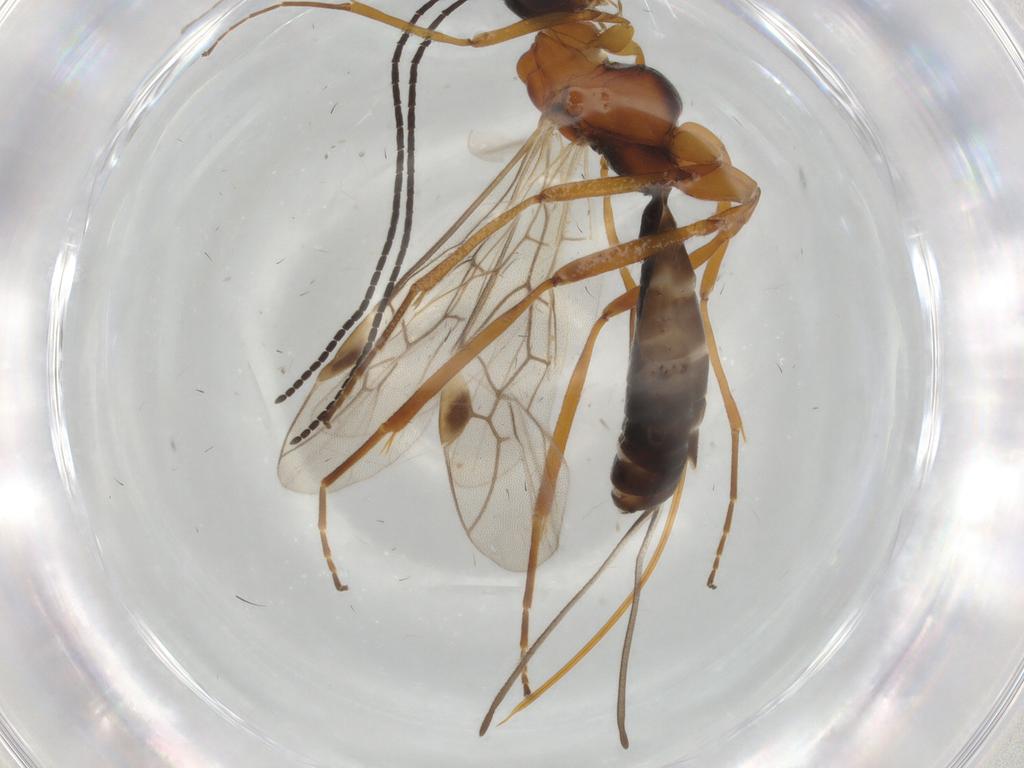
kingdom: Animalia
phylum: Arthropoda
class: Insecta
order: Hymenoptera
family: Braconidae
